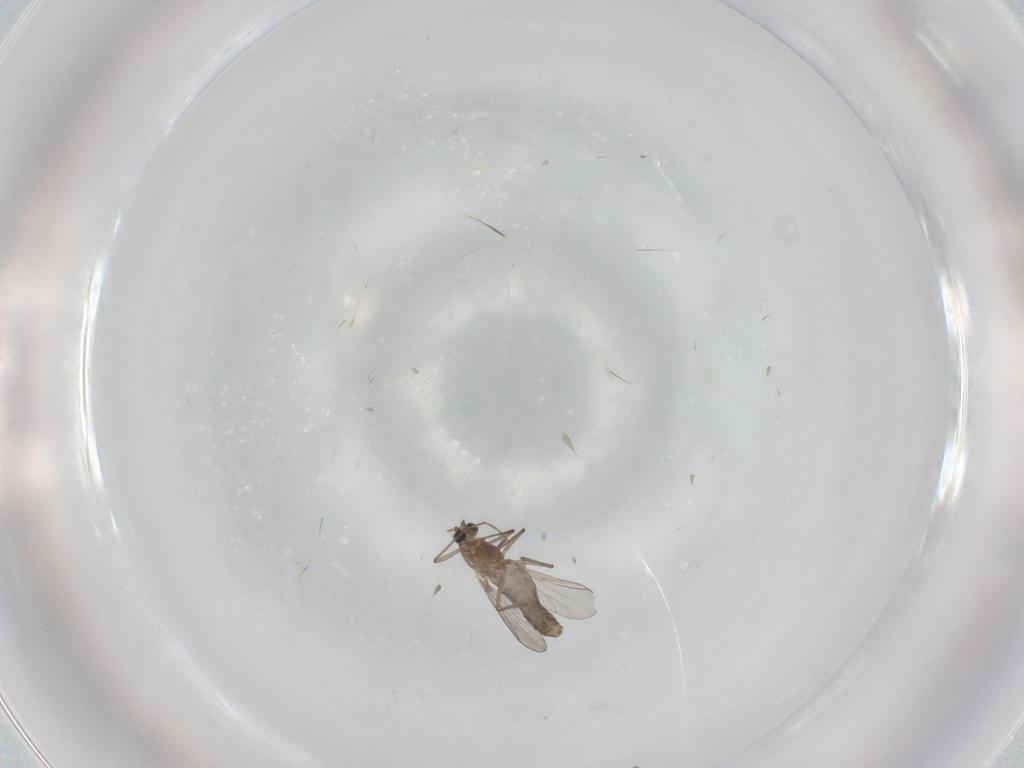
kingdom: Animalia
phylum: Arthropoda
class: Insecta
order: Diptera
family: Chironomidae
